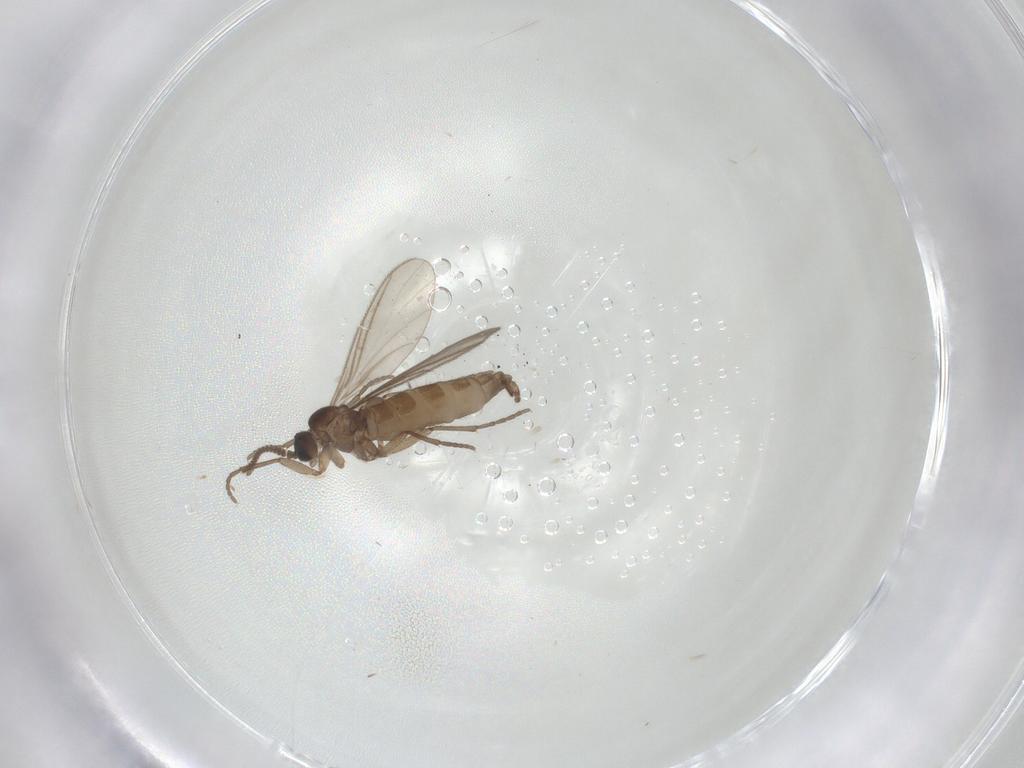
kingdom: Animalia
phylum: Arthropoda
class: Insecta
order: Diptera
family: Sciaridae
